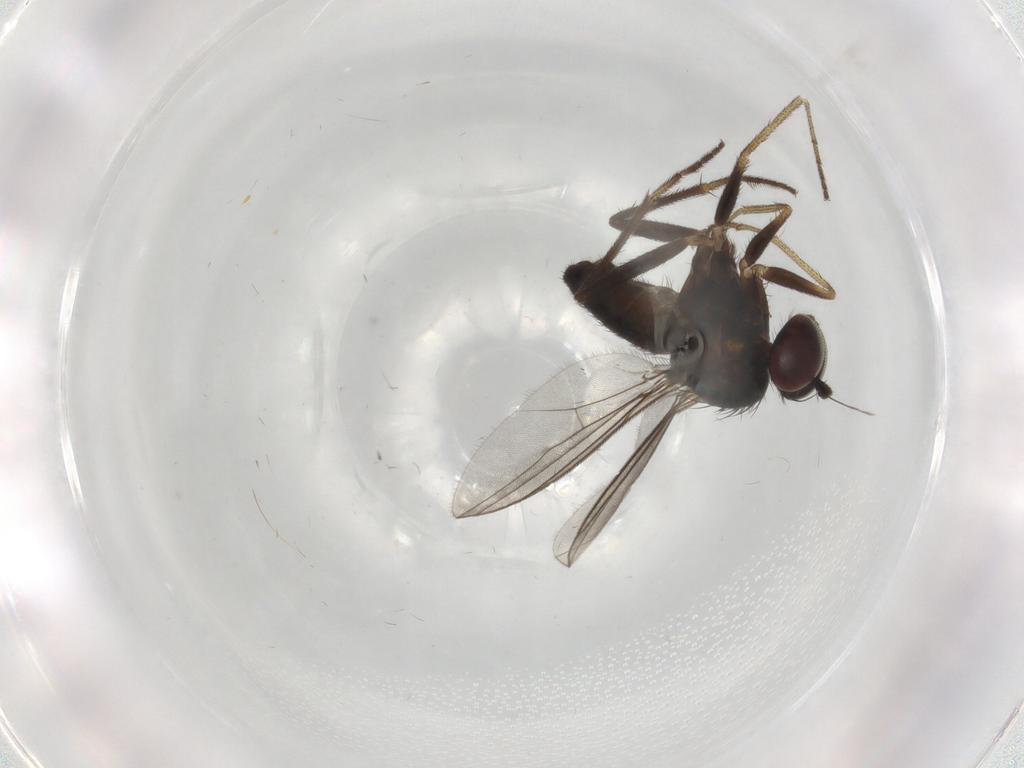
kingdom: Animalia
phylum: Arthropoda
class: Insecta
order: Diptera
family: Dolichopodidae
